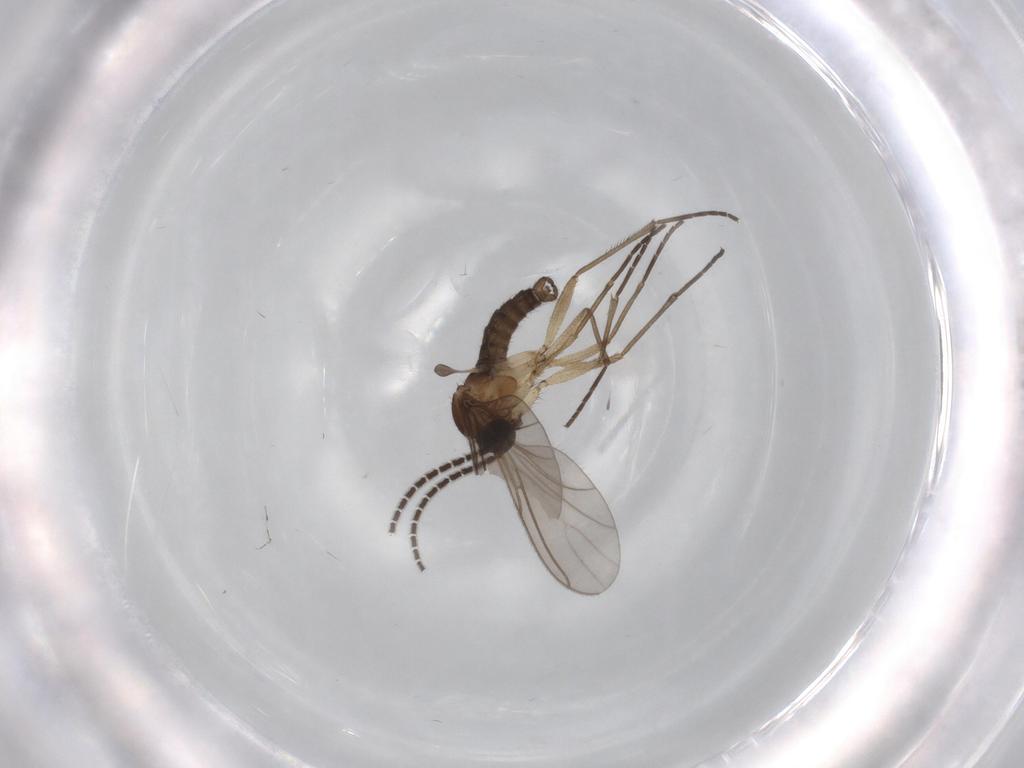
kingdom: Animalia
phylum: Arthropoda
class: Insecta
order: Diptera
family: Sciaridae
